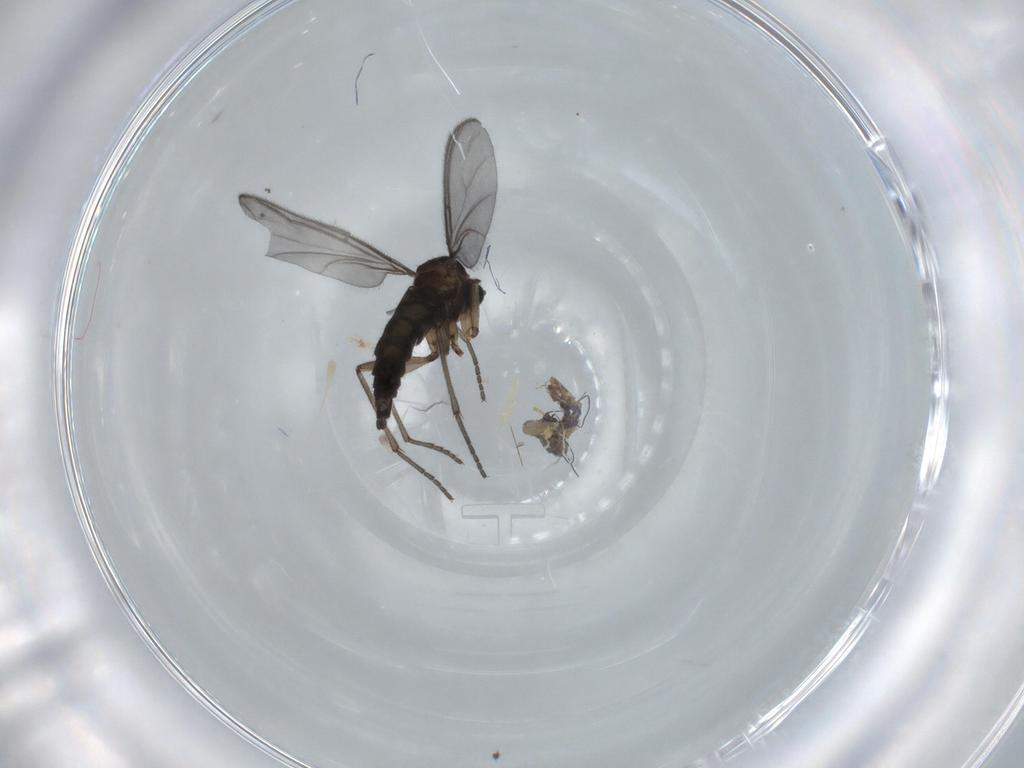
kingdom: Animalia
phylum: Arthropoda
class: Insecta
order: Diptera
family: Sciaridae
